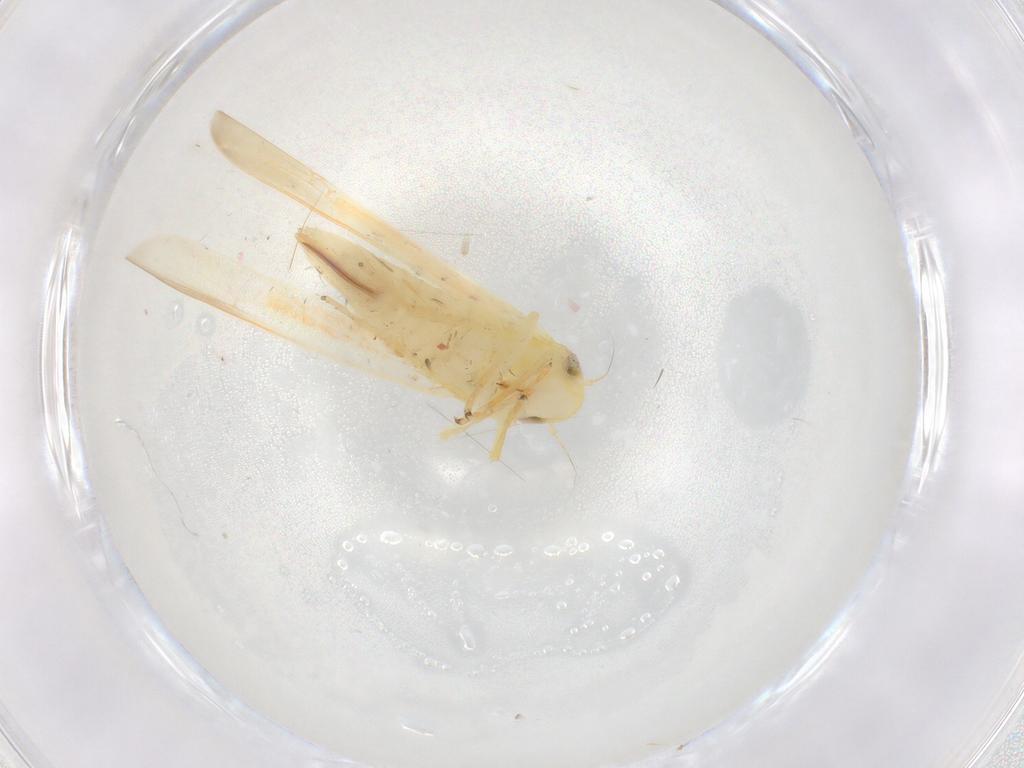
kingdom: Animalia
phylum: Arthropoda
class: Insecta
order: Hemiptera
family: Cicadellidae
